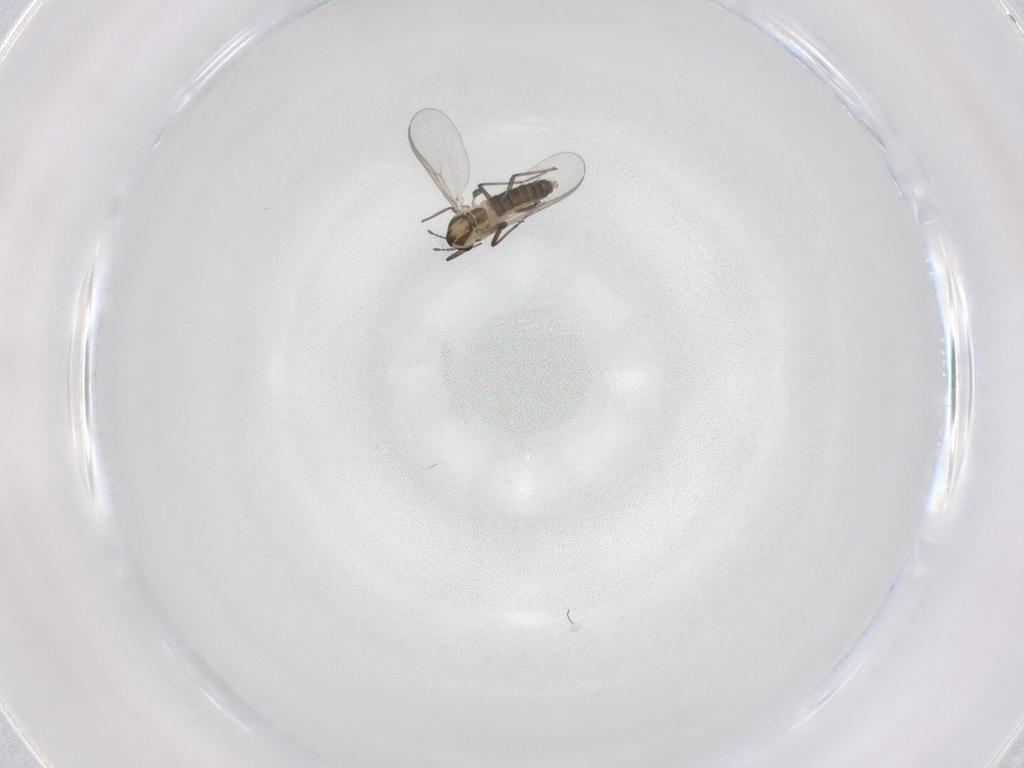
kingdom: Animalia
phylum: Arthropoda
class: Insecta
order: Diptera
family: Chironomidae
